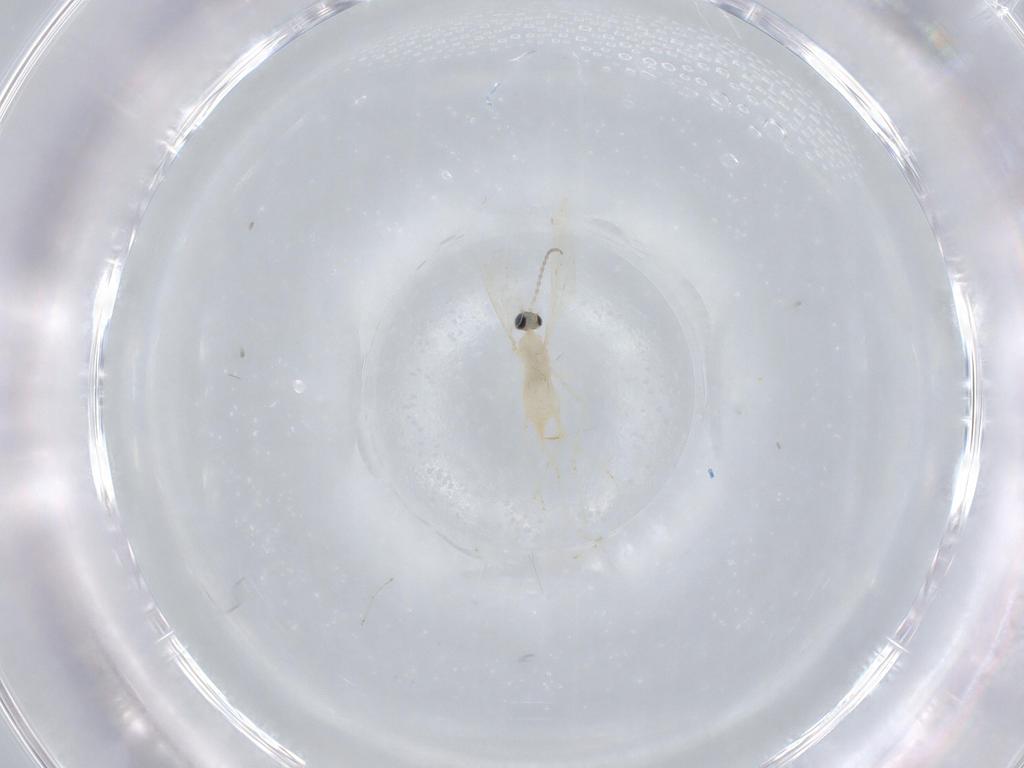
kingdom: Animalia
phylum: Arthropoda
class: Insecta
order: Diptera
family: Cecidomyiidae
